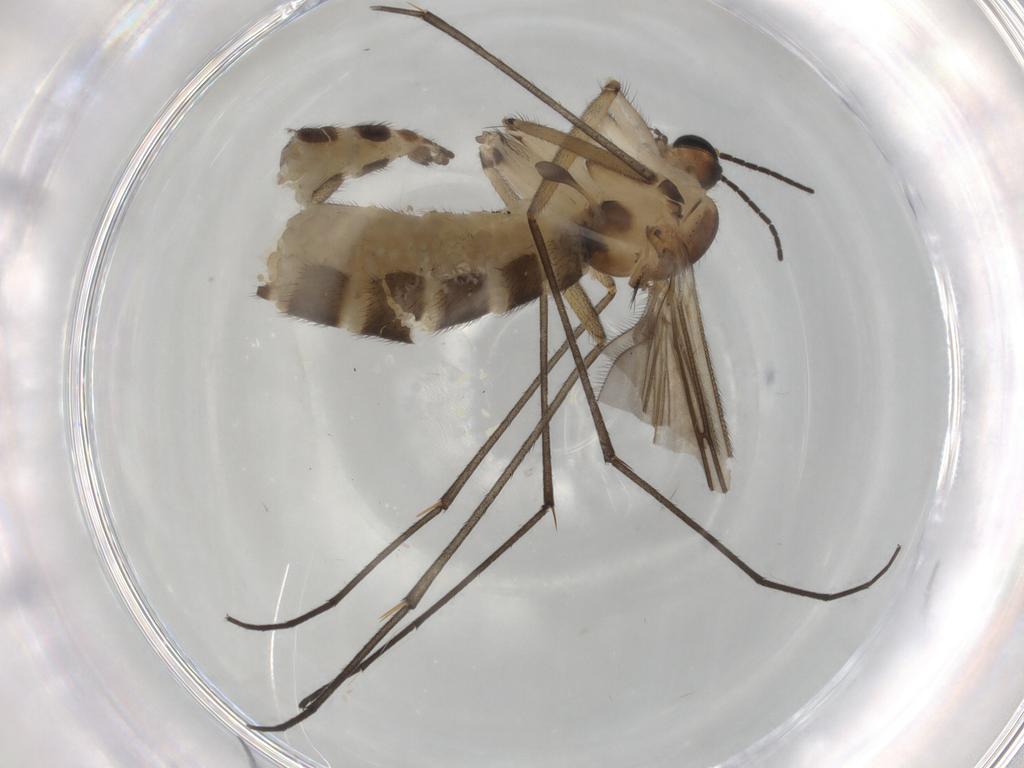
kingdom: Animalia
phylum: Arthropoda
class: Insecta
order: Diptera
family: Sciaridae
